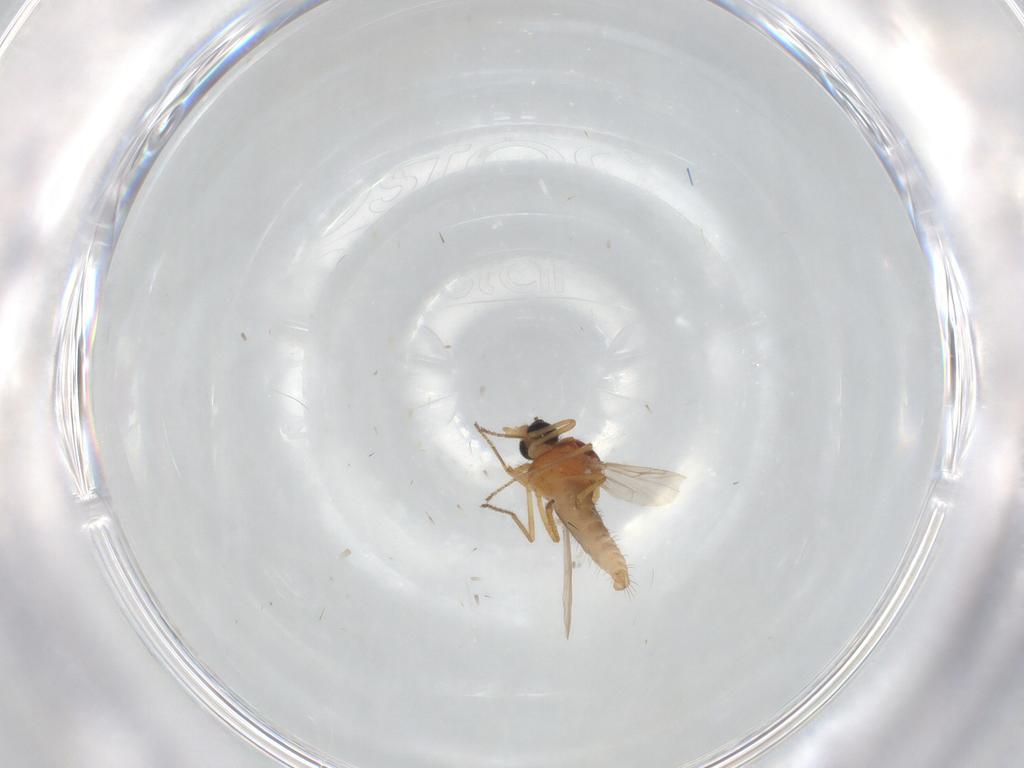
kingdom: Animalia
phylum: Arthropoda
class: Insecta
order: Diptera
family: Ceratopogonidae
